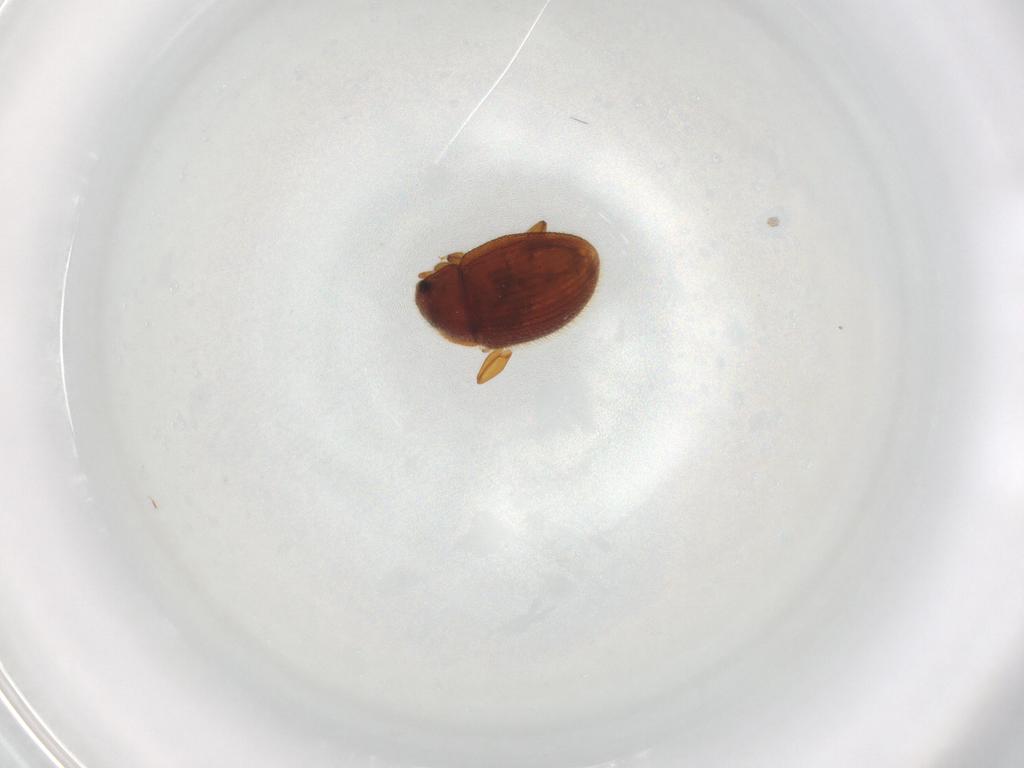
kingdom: Animalia
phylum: Arthropoda
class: Insecta
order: Coleoptera
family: Euxestidae
